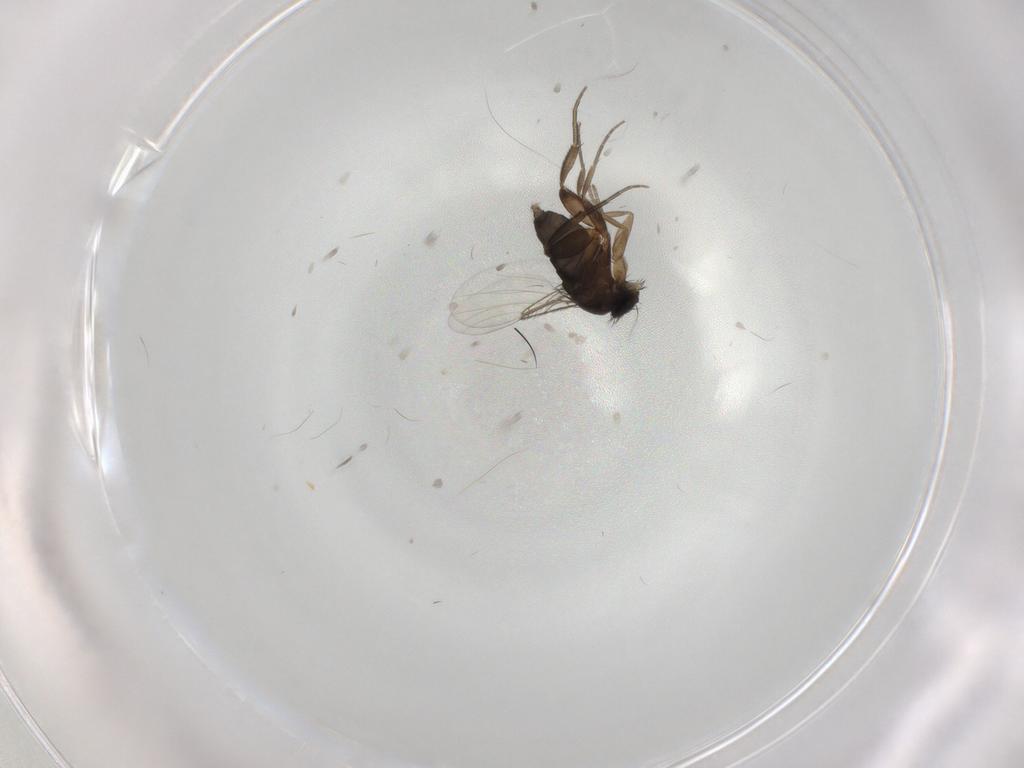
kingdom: Animalia
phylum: Arthropoda
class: Insecta
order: Diptera
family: Phoridae
